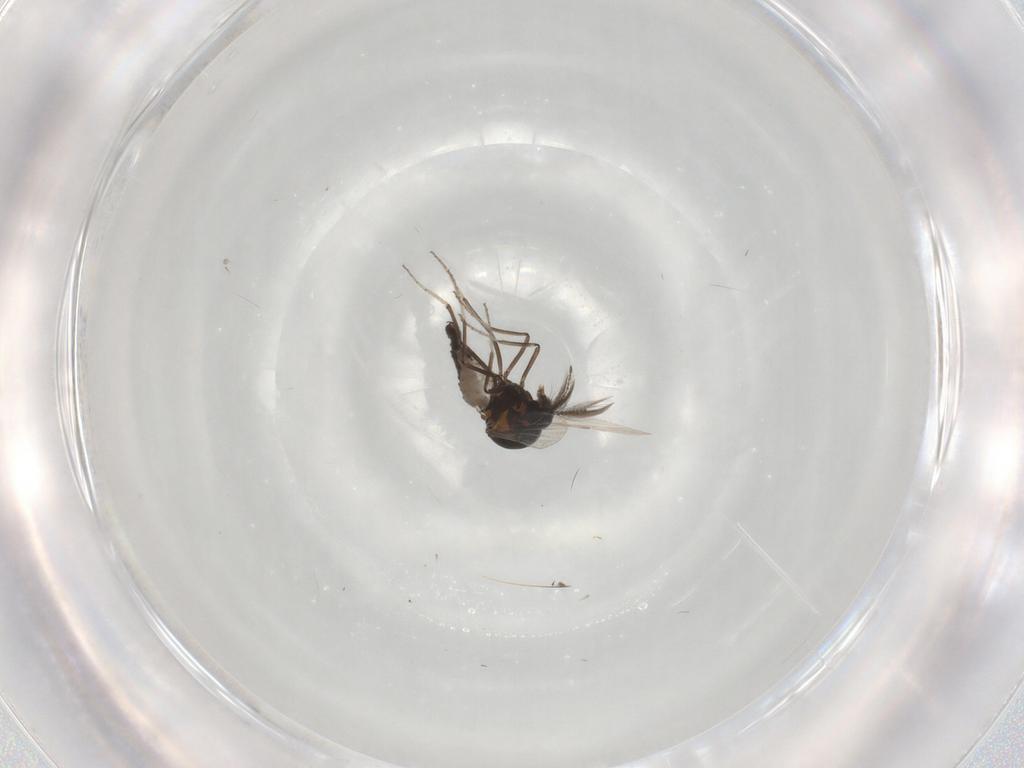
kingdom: Animalia
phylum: Arthropoda
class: Insecta
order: Diptera
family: Ceratopogonidae
